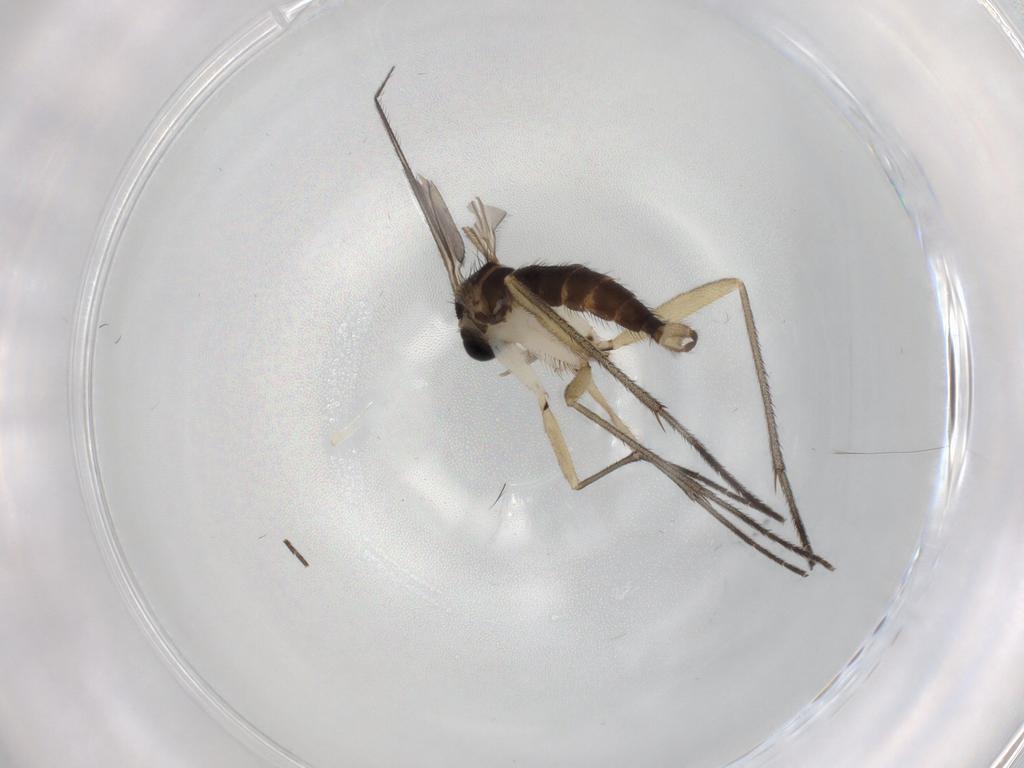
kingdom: Animalia
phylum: Arthropoda
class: Insecta
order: Diptera
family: Sciaridae
